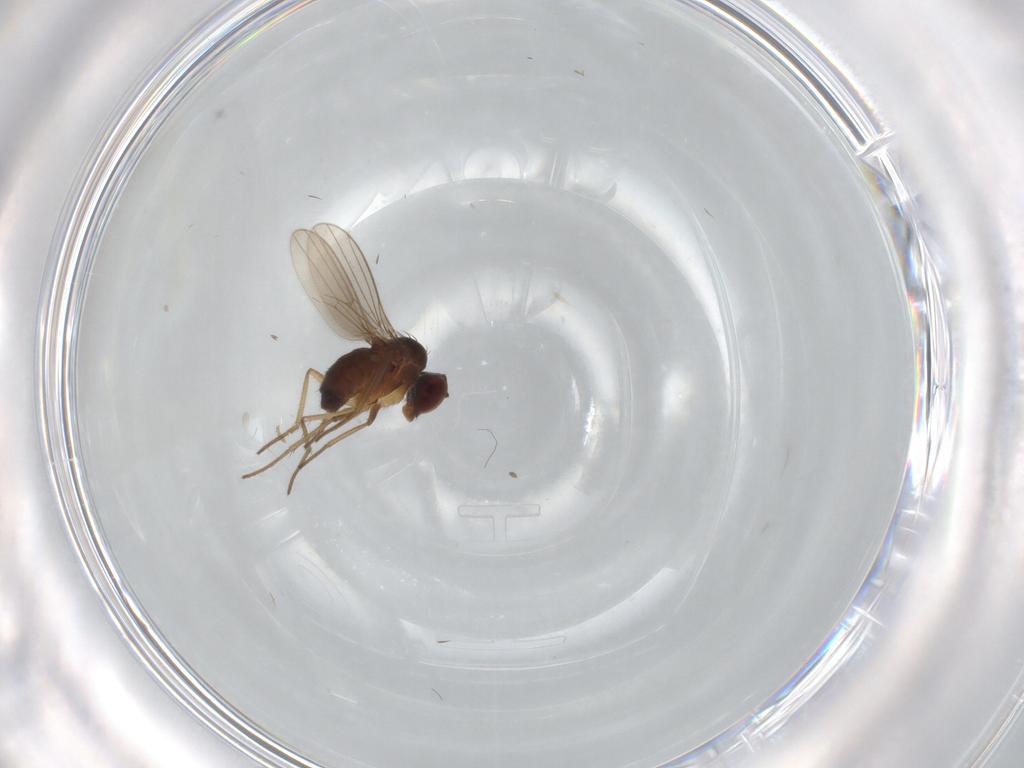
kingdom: Animalia
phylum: Arthropoda
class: Insecta
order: Diptera
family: Dolichopodidae
